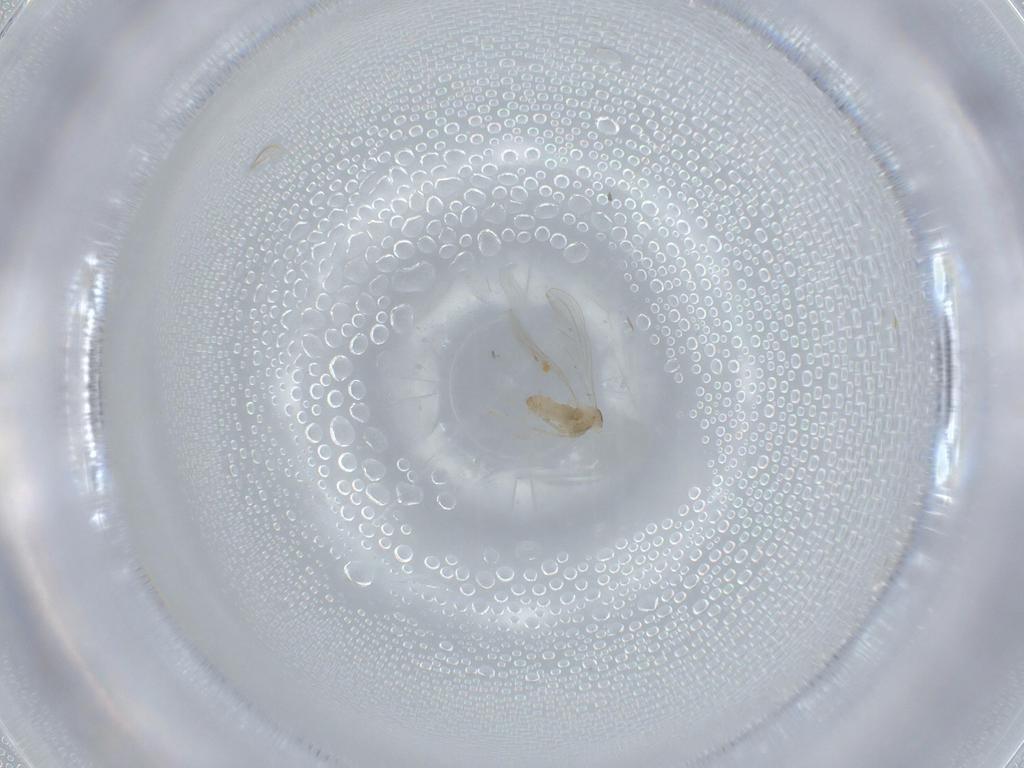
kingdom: Animalia
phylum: Arthropoda
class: Insecta
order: Diptera
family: Cecidomyiidae
